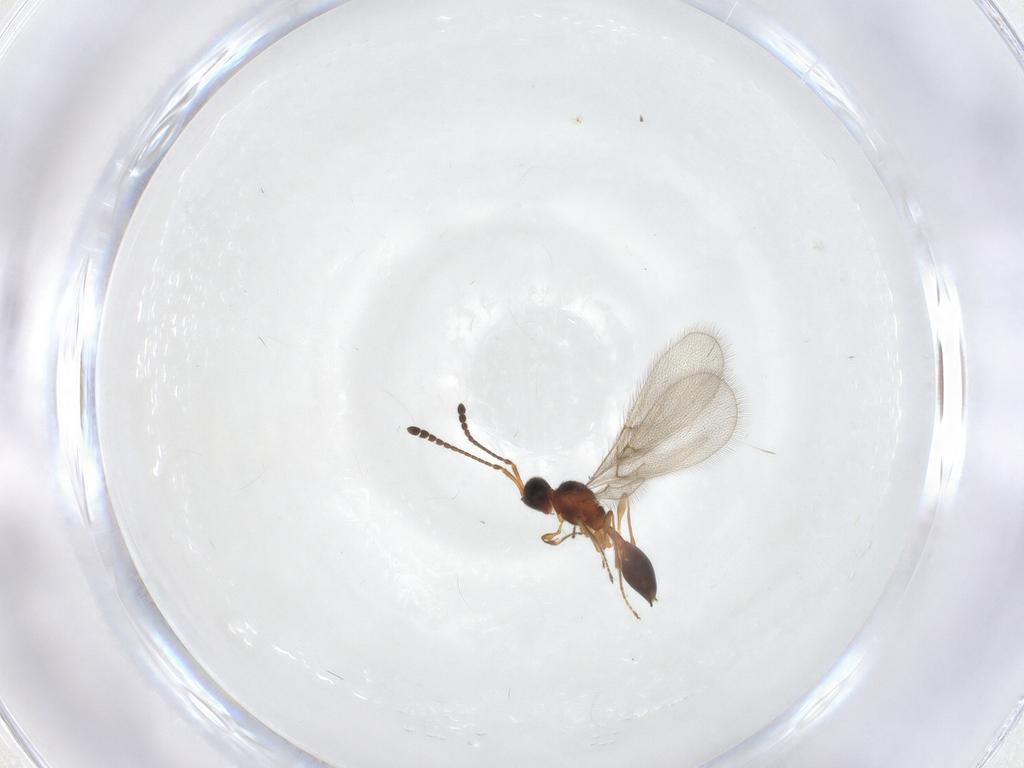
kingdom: Animalia
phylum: Arthropoda
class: Insecta
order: Hymenoptera
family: Diapriidae
